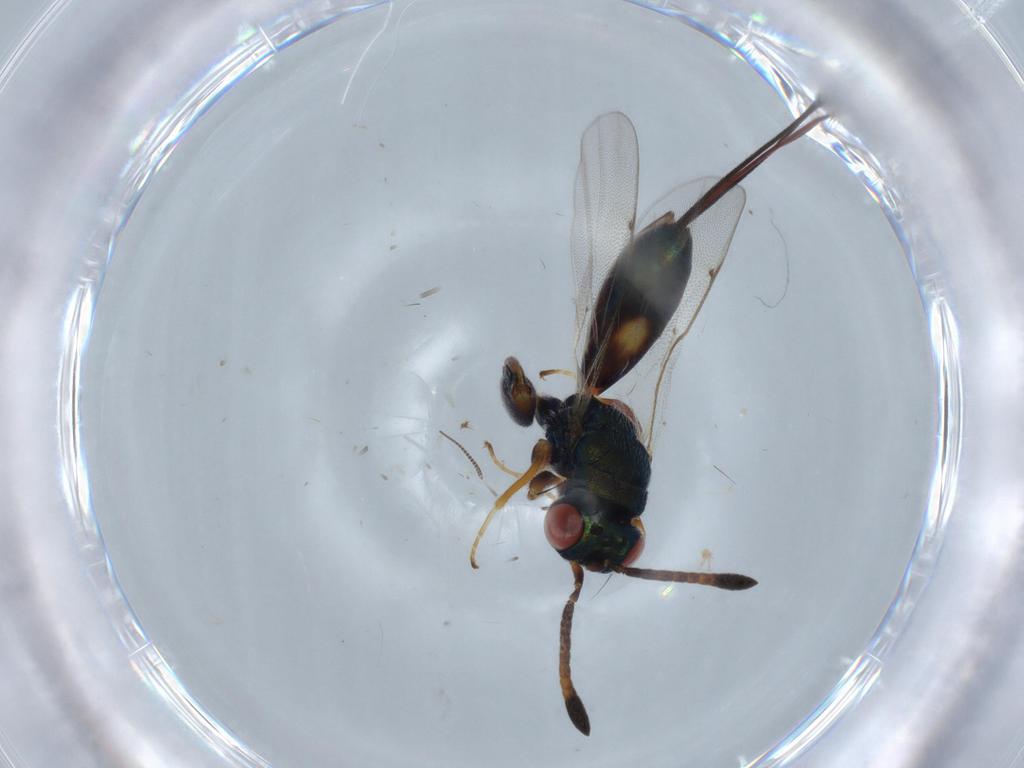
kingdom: Animalia
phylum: Arthropoda
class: Insecta
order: Hymenoptera
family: Torymidae
